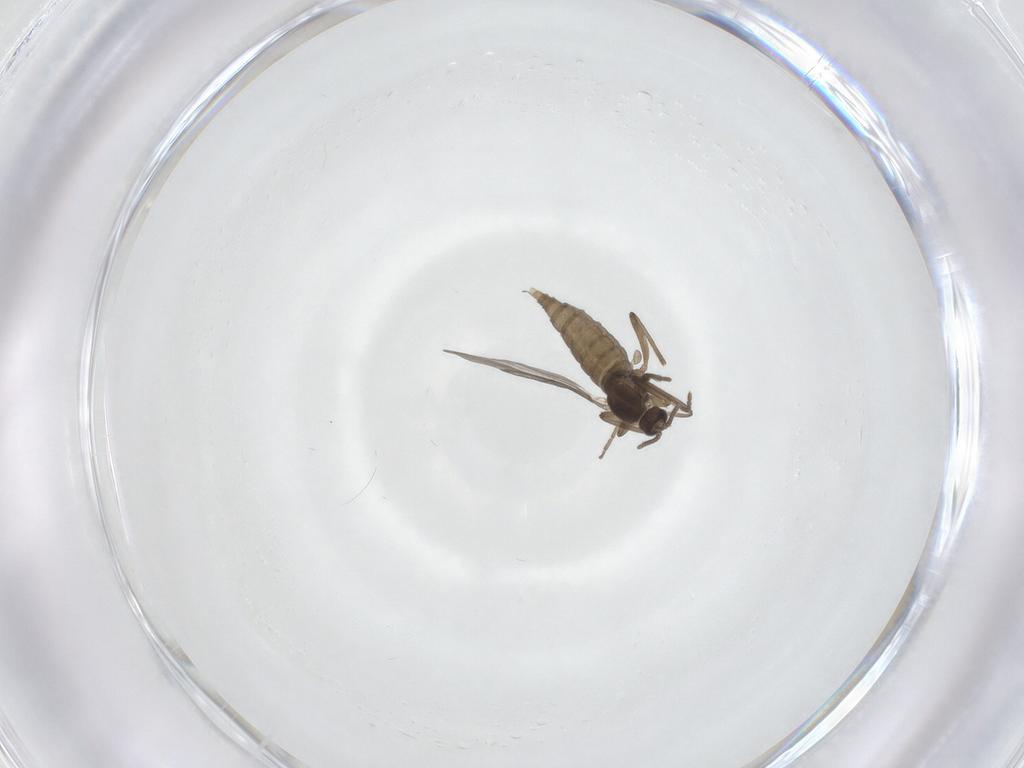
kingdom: Animalia
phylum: Arthropoda
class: Insecta
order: Diptera
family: Cecidomyiidae
